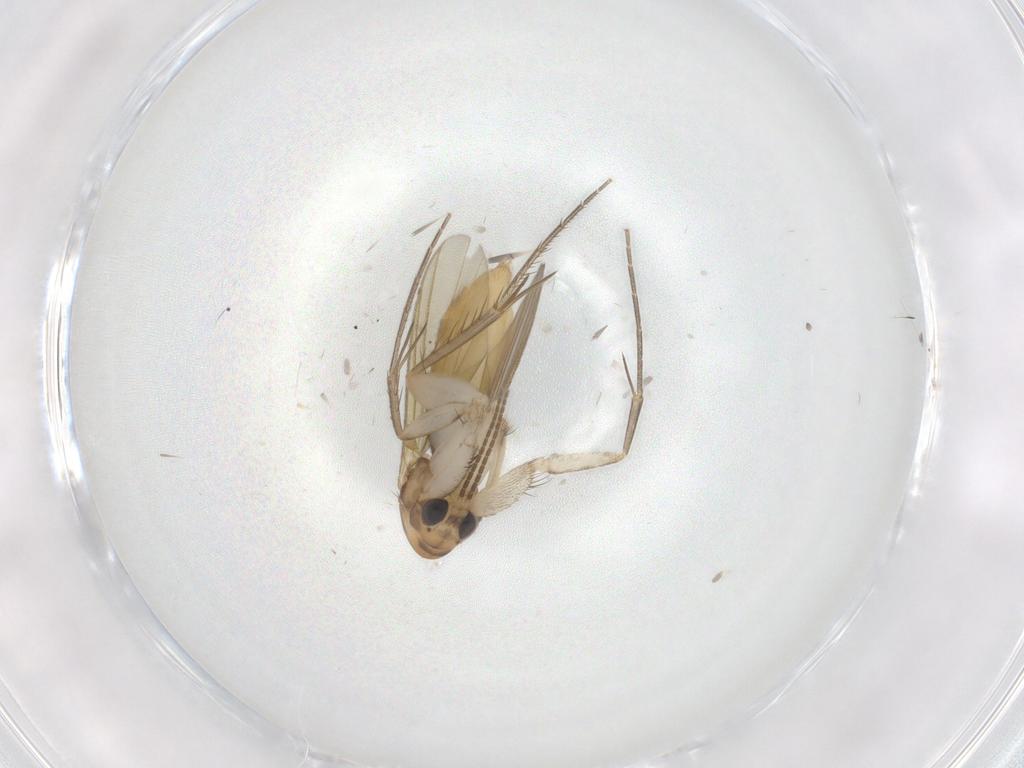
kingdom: Animalia
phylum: Arthropoda
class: Insecta
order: Diptera
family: Mycetophilidae
